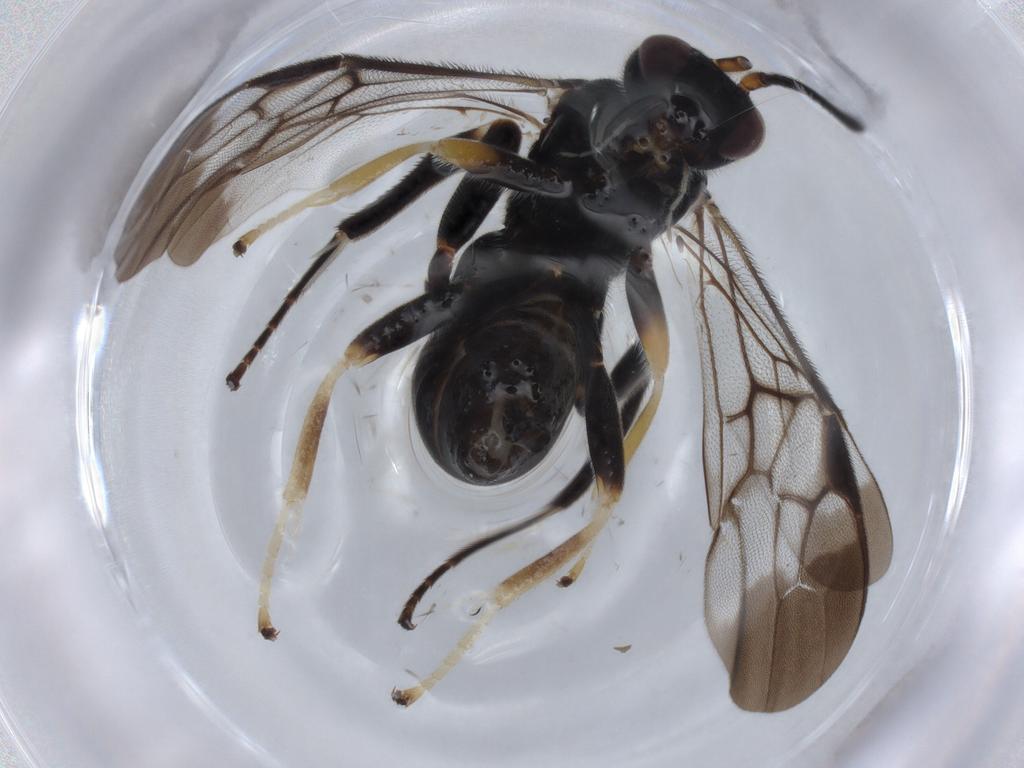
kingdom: Animalia
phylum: Arthropoda
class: Insecta
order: Hymenoptera
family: Braconidae
